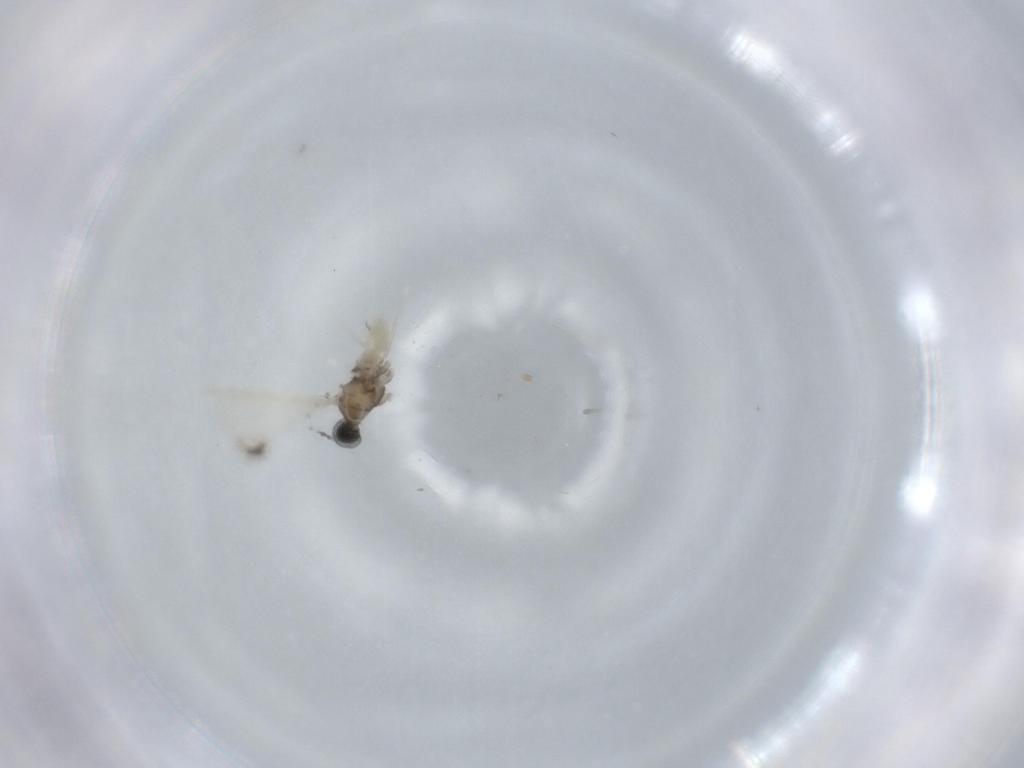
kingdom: Animalia
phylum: Arthropoda
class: Insecta
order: Diptera
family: Cecidomyiidae
